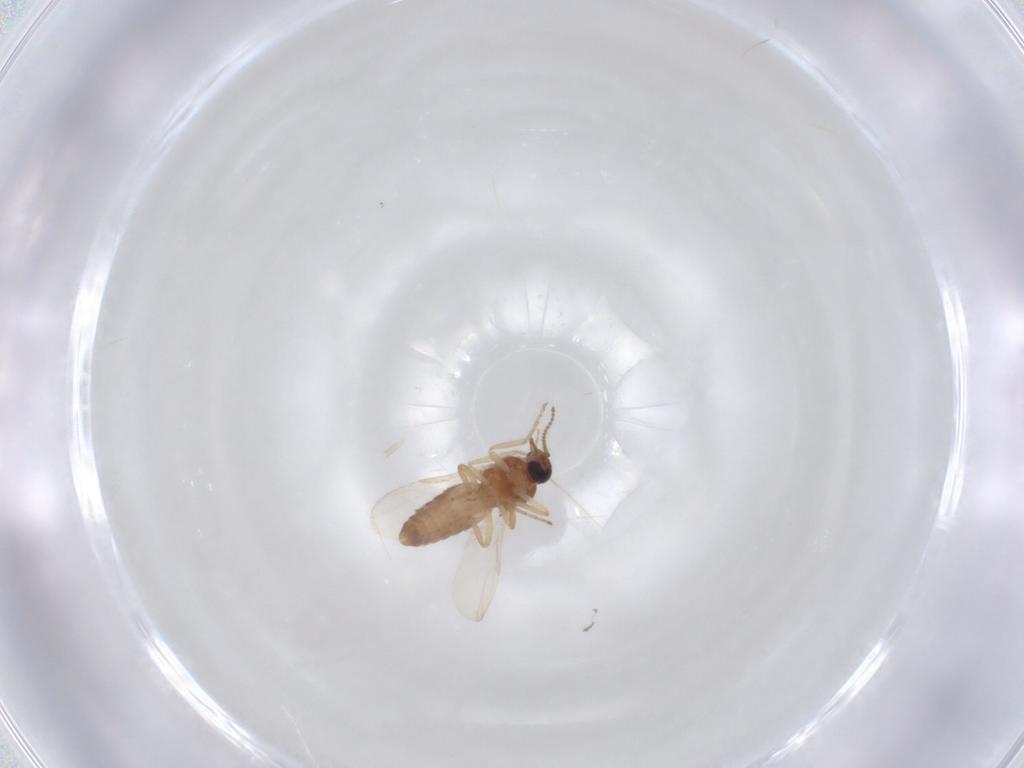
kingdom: Animalia
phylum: Arthropoda
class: Insecta
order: Diptera
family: Ceratopogonidae
